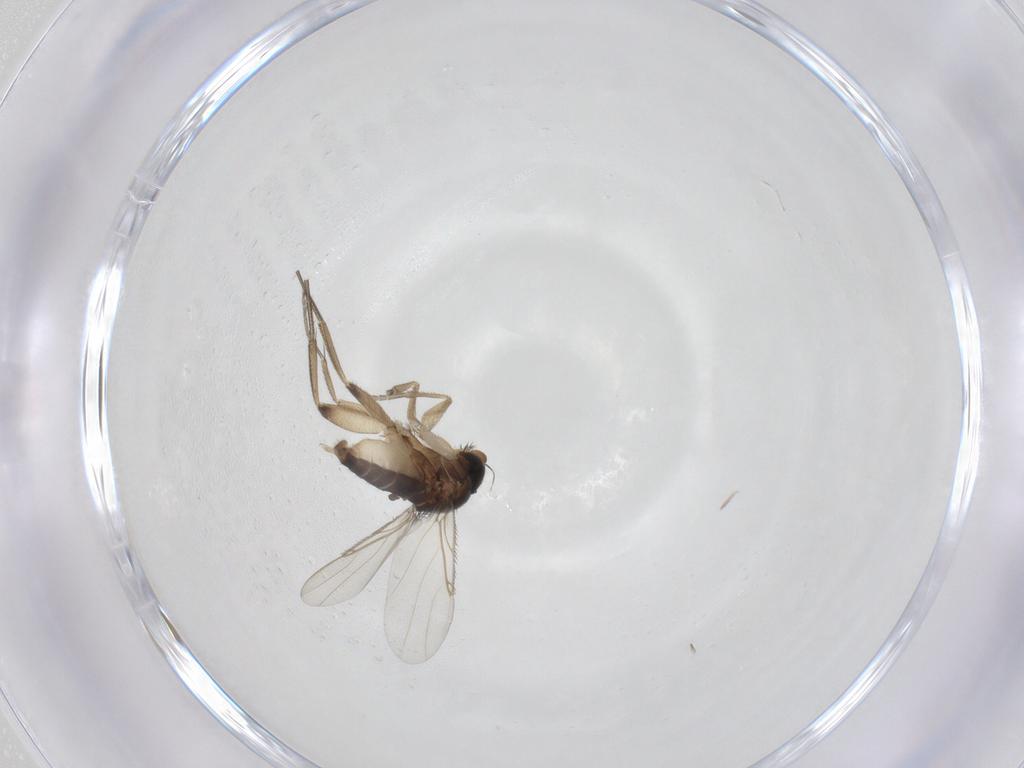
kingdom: Animalia
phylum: Arthropoda
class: Insecta
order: Diptera
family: Phoridae
